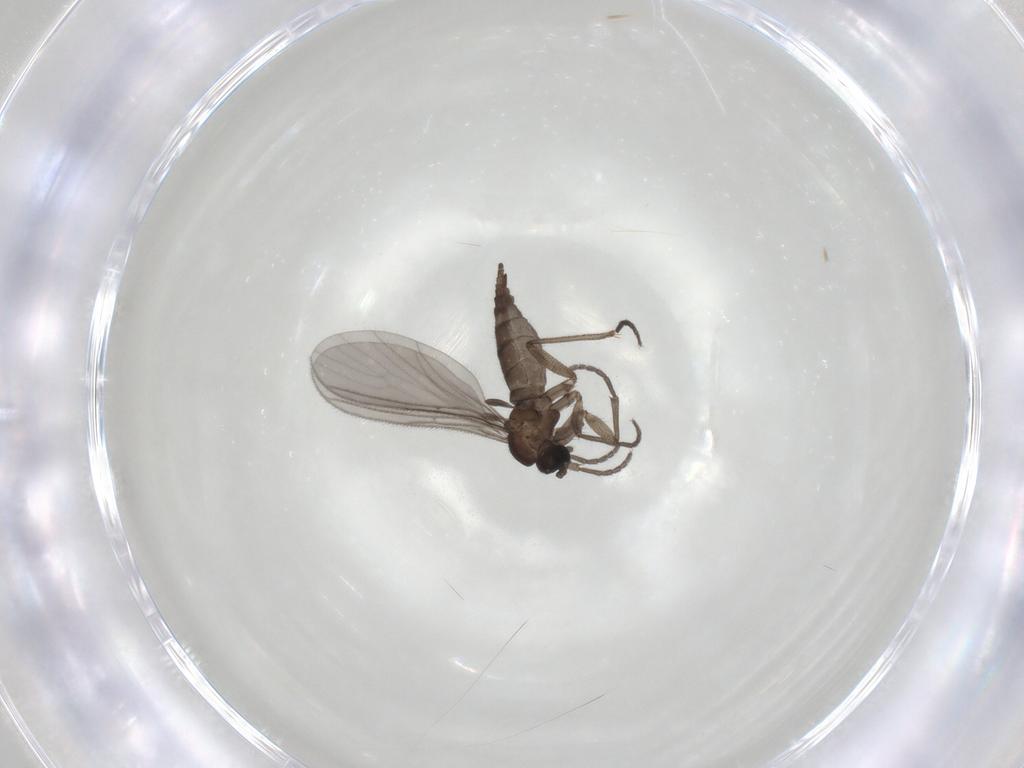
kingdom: Animalia
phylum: Arthropoda
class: Insecta
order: Diptera
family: Sciaridae
